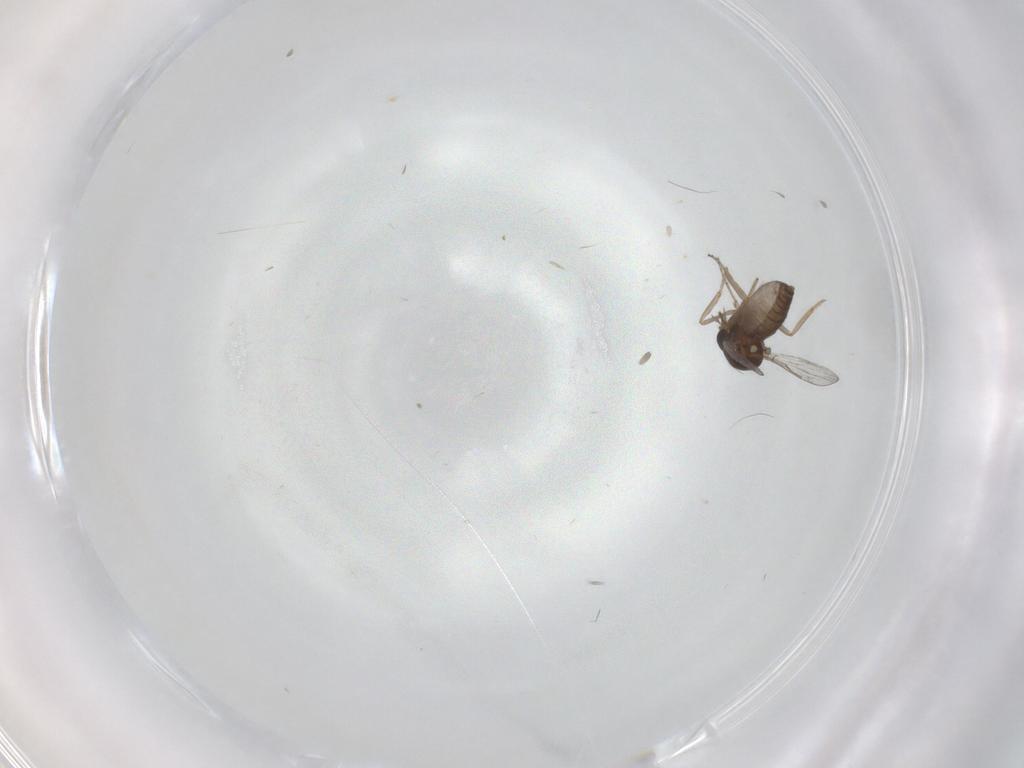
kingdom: Animalia
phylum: Arthropoda
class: Insecta
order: Diptera
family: Ceratopogonidae
